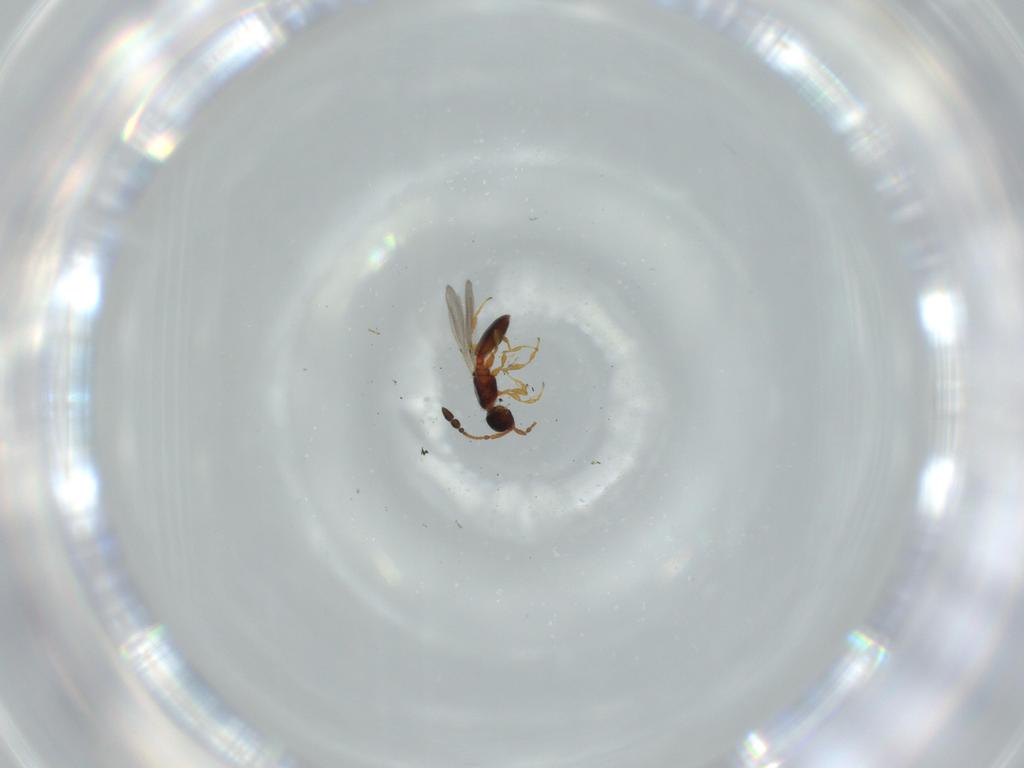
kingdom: Animalia
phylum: Arthropoda
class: Insecta
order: Hymenoptera
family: Diapriidae
